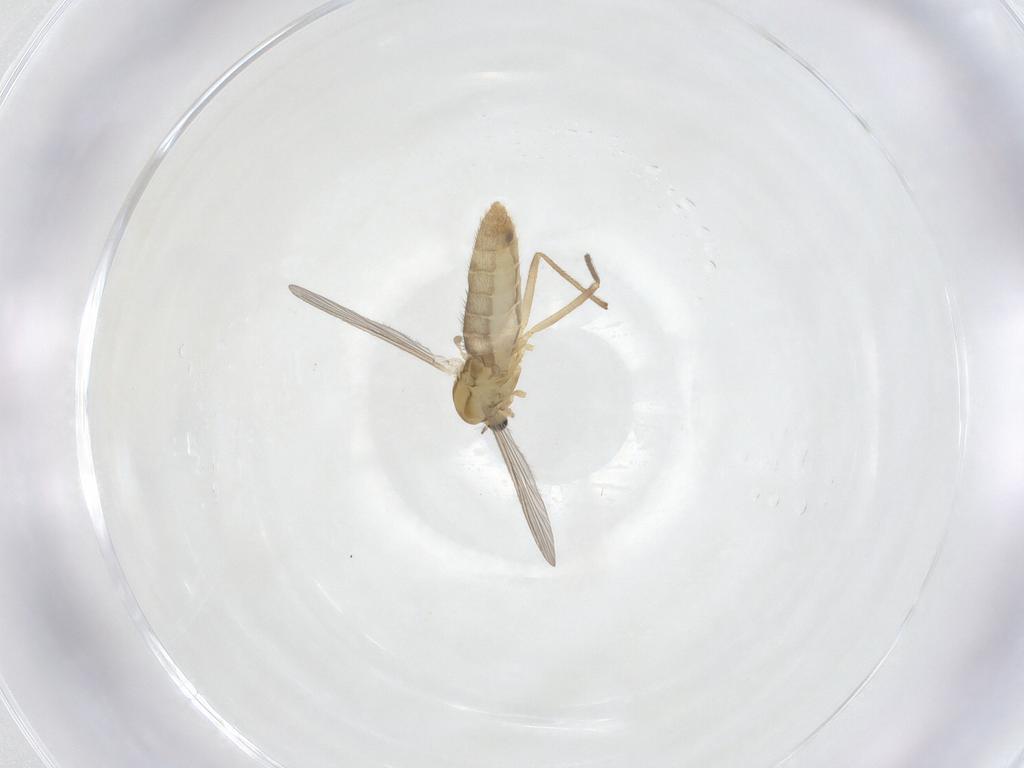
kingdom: Animalia
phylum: Arthropoda
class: Insecta
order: Diptera
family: Chironomidae
